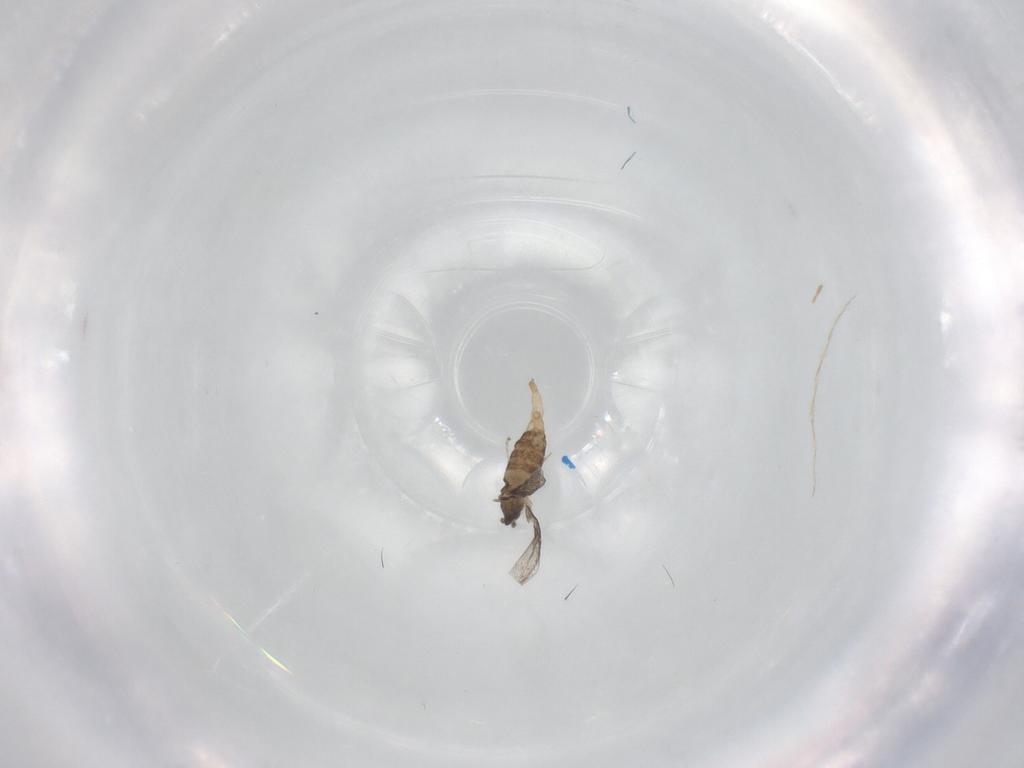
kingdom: Animalia
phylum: Arthropoda
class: Insecta
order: Diptera
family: Cecidomyiidae
